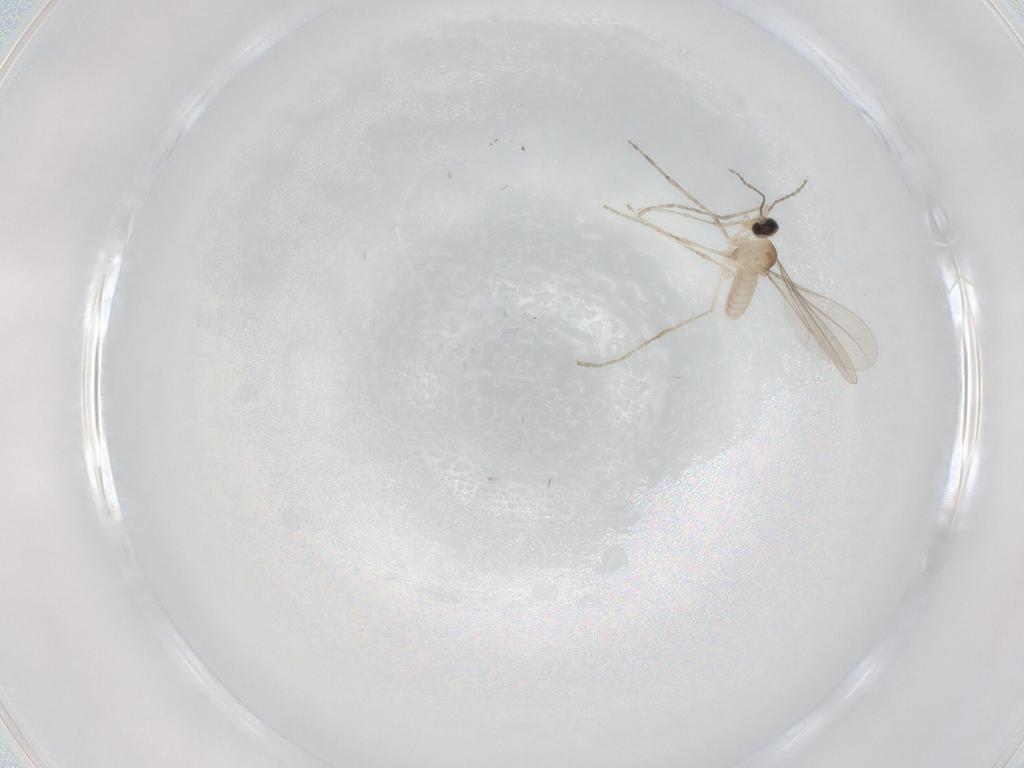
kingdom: Animalia
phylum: Arthropoda
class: Insecta
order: Diptera
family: Cecidomyiidae
